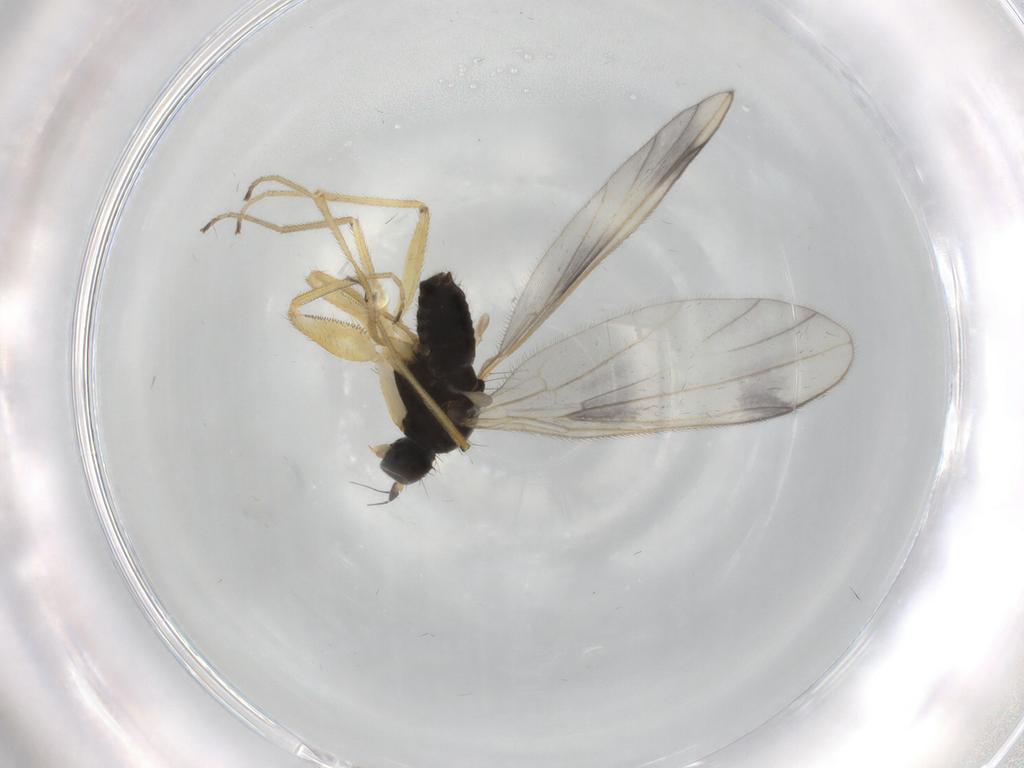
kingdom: Animalia
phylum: Arthropoda
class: Insecta
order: Diptera
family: Empididae
